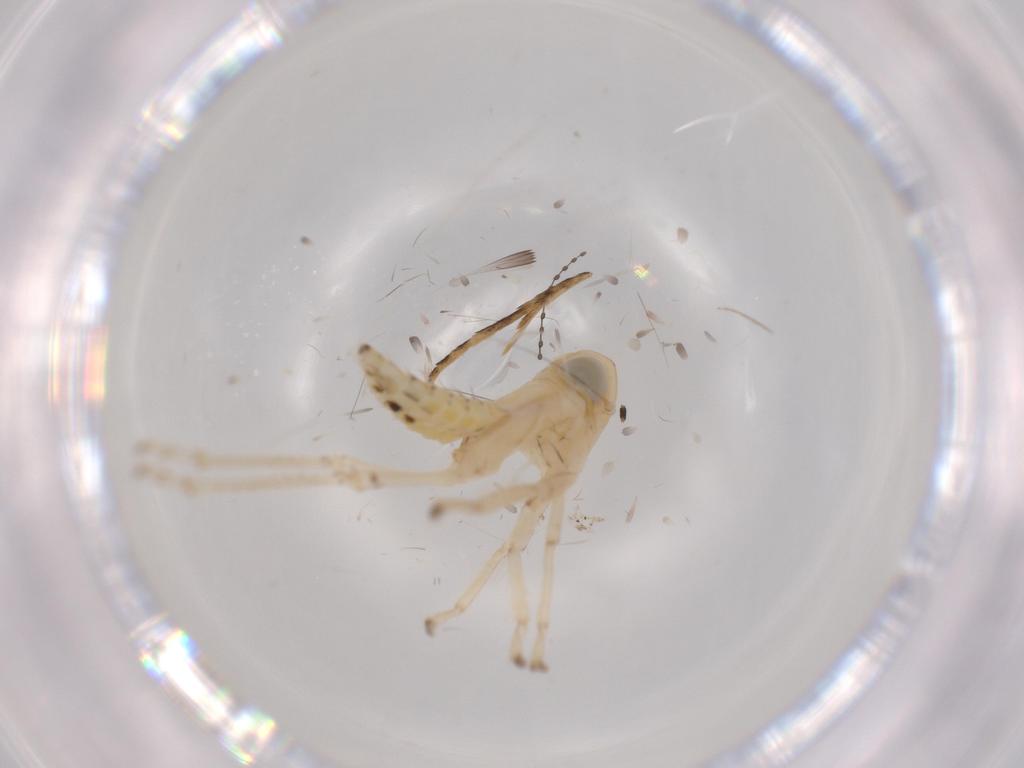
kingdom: Animalia
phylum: Arthropoda
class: Insecta
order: Hemiptera
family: Cicadellidae
